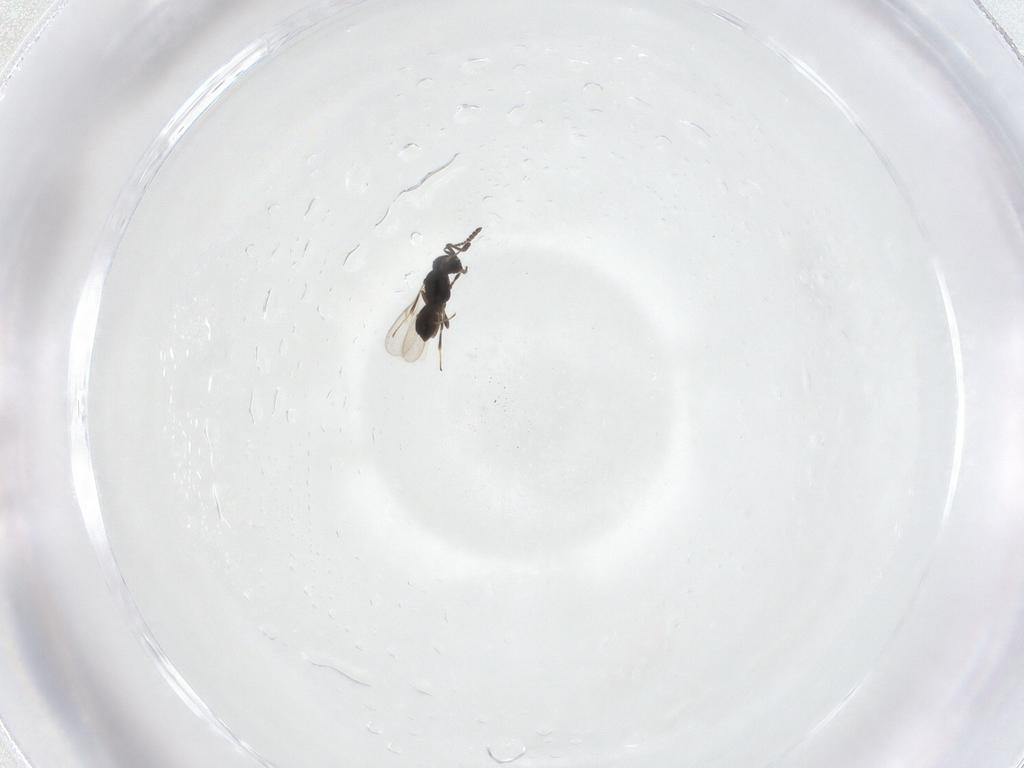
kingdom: Animalia
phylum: Arthropoda
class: Insecta
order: Hymenoptera
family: Scelionidae
